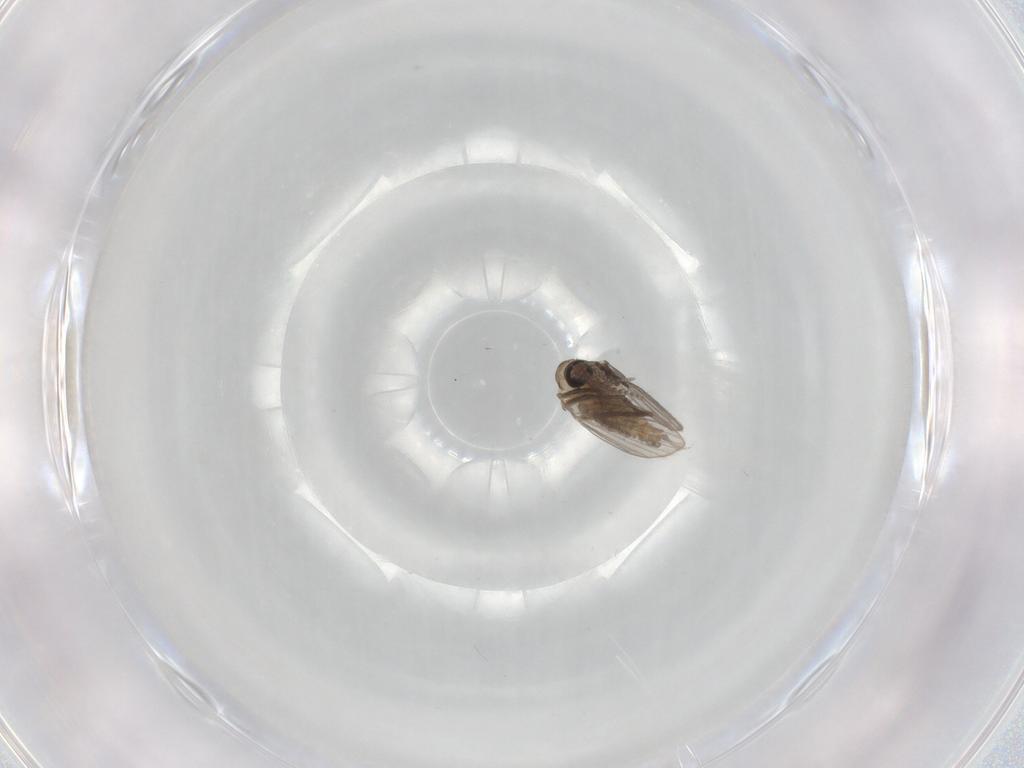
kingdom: Animalia
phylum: Arthropoda
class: Insecta
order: Diptera
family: Psychodidae
